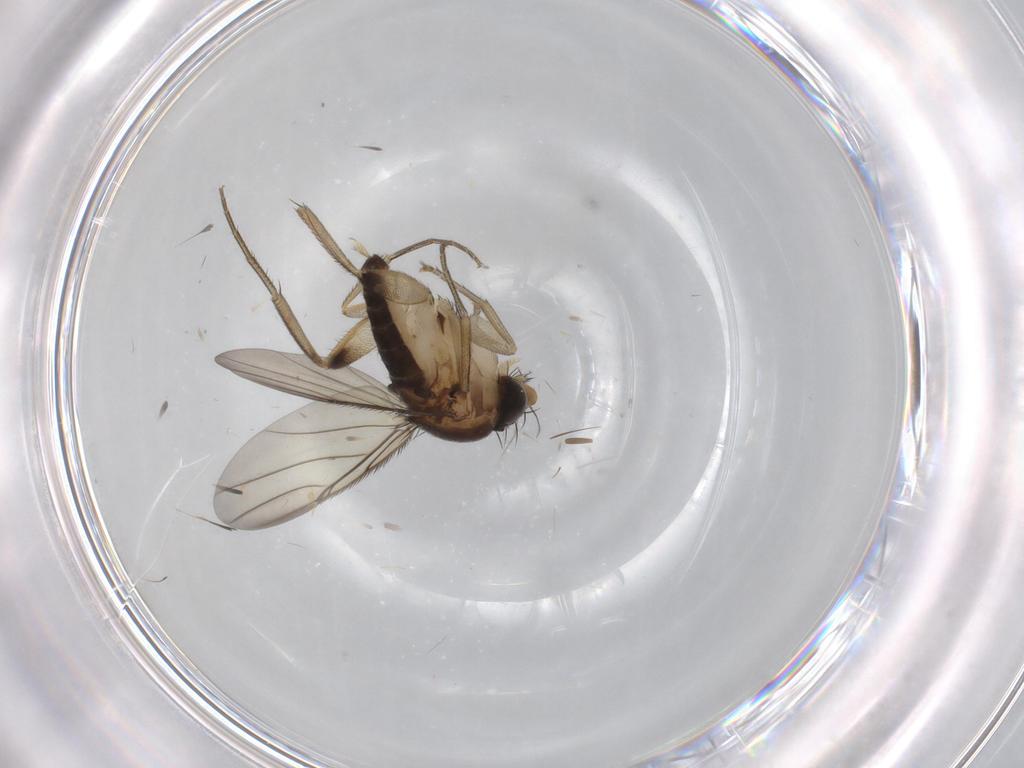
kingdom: Animalia
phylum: Arthropoda
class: Insecta
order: Diptera
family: Phoridae
